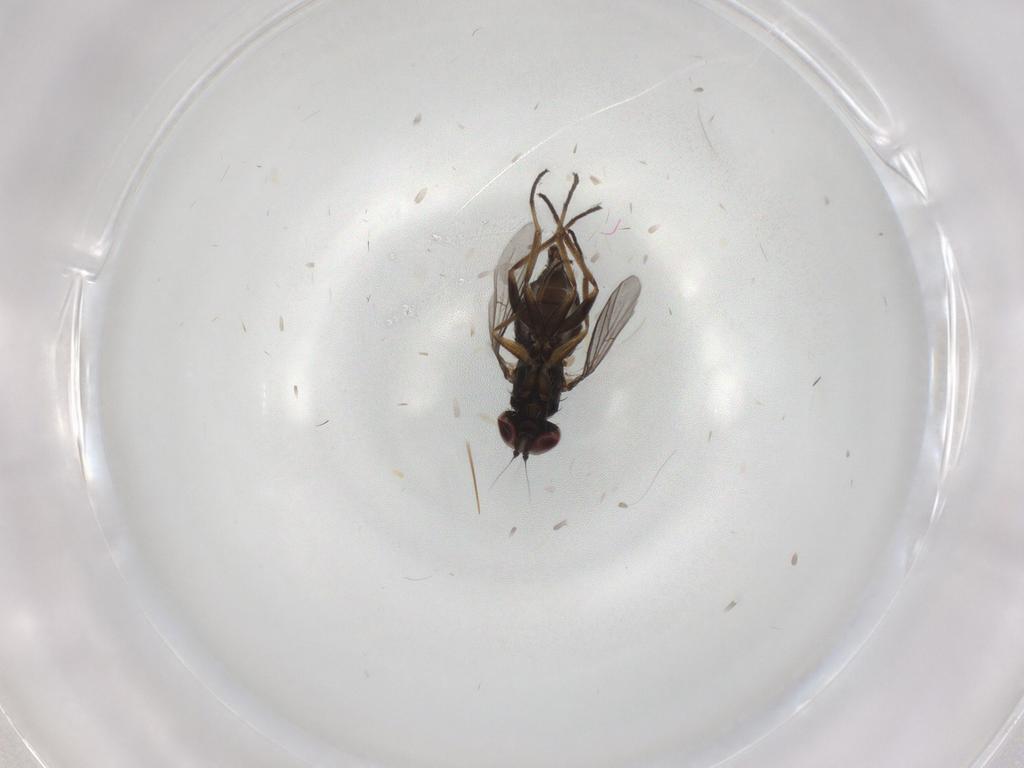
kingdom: Animalia
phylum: Arthropoda
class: Insecta
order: Diptera
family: Dolichopodidae
